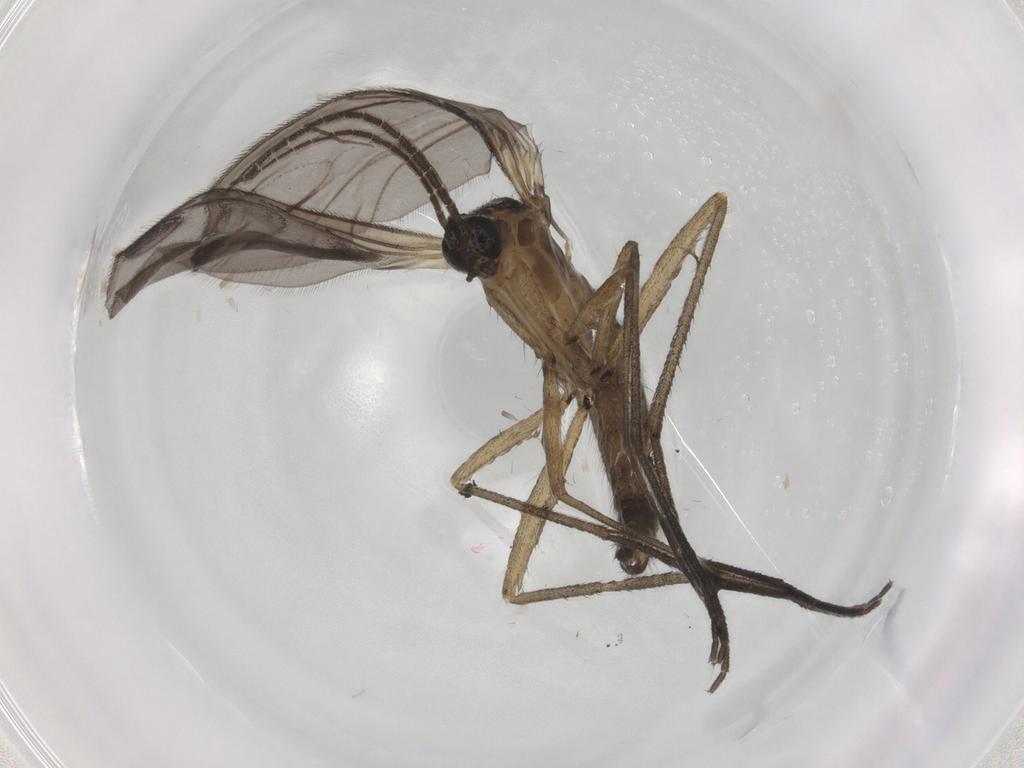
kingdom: Animalia
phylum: Arthropoda
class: Insecta
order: Diptera
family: Sciaridae
